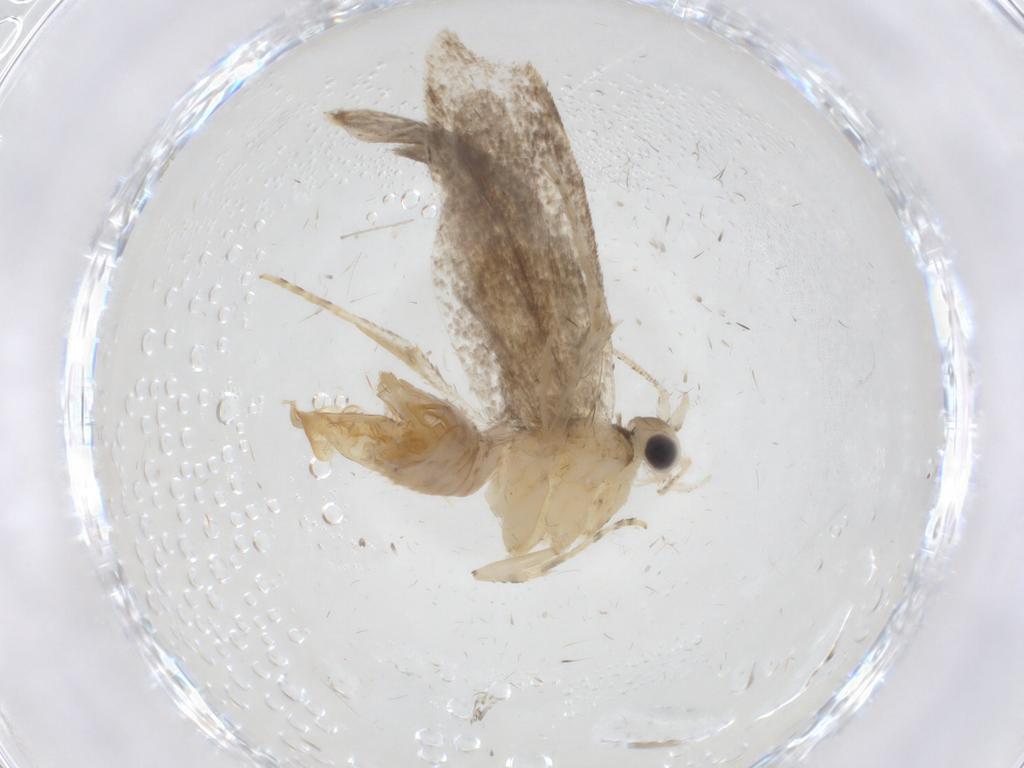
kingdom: Animalia
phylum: Arthropoda
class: Insecta
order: Lepidoptera
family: Tineidae
